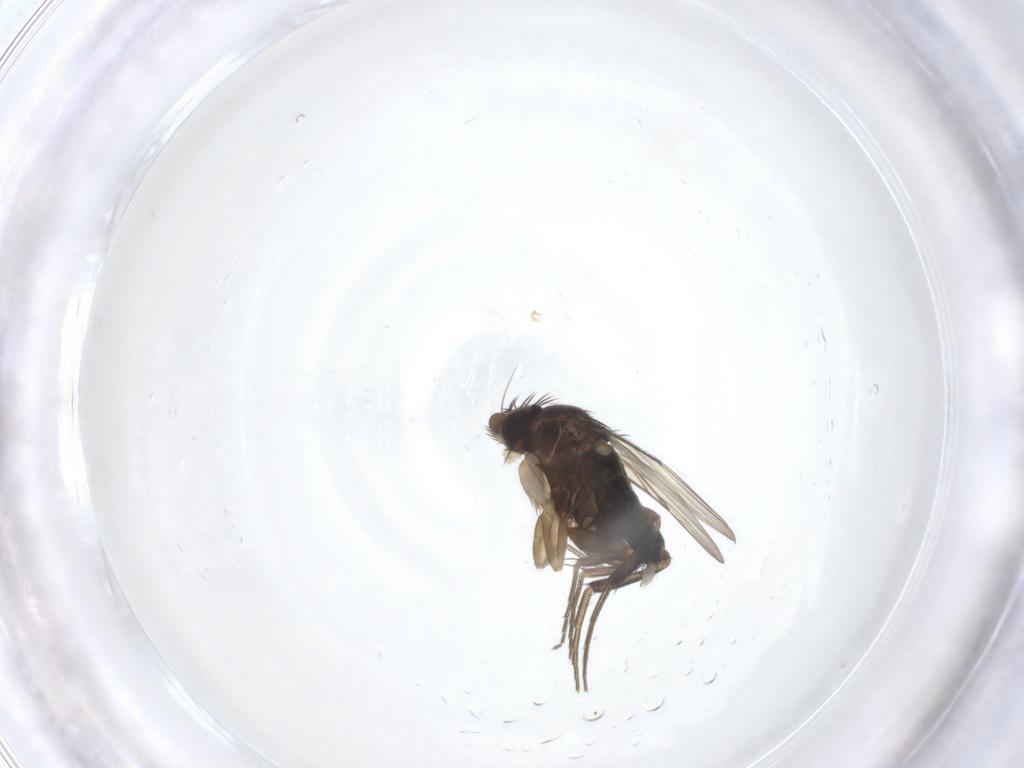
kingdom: Animalia
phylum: Arthropoda
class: Insecta
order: Diptera
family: Phoridae
